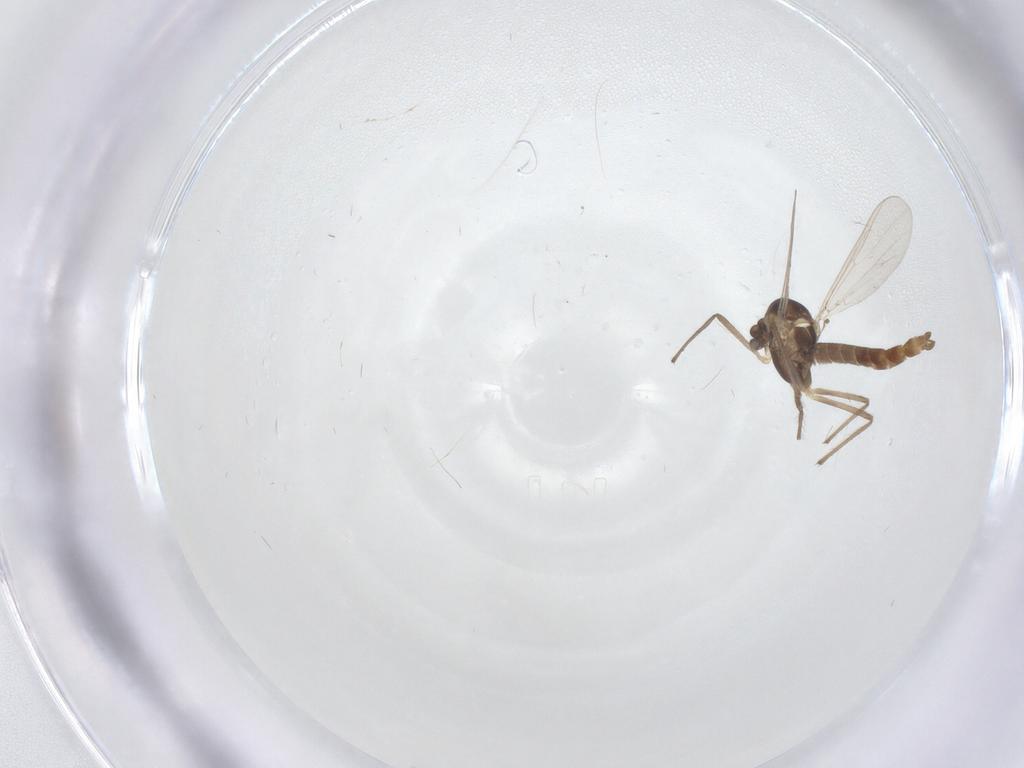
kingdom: Animalia
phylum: Arthropoda
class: Insecta
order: Diptera
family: Chironomidae
